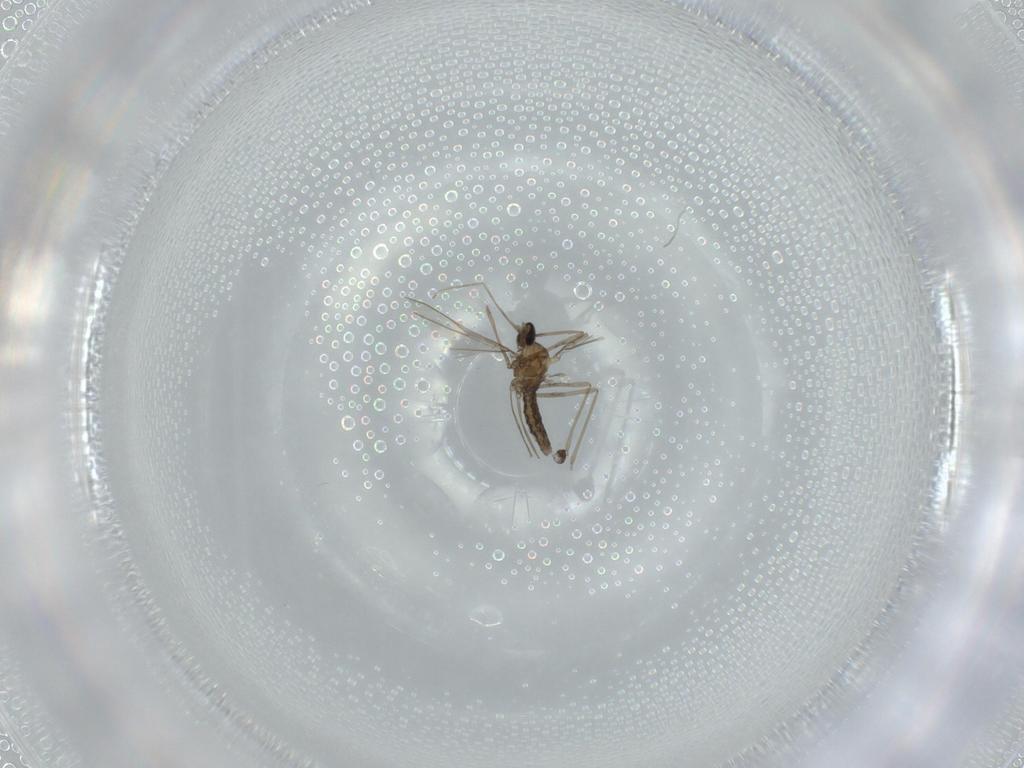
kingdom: Animalia
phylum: Arthropoda
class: Insecta
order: Diptera
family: Cecidomyiidae
